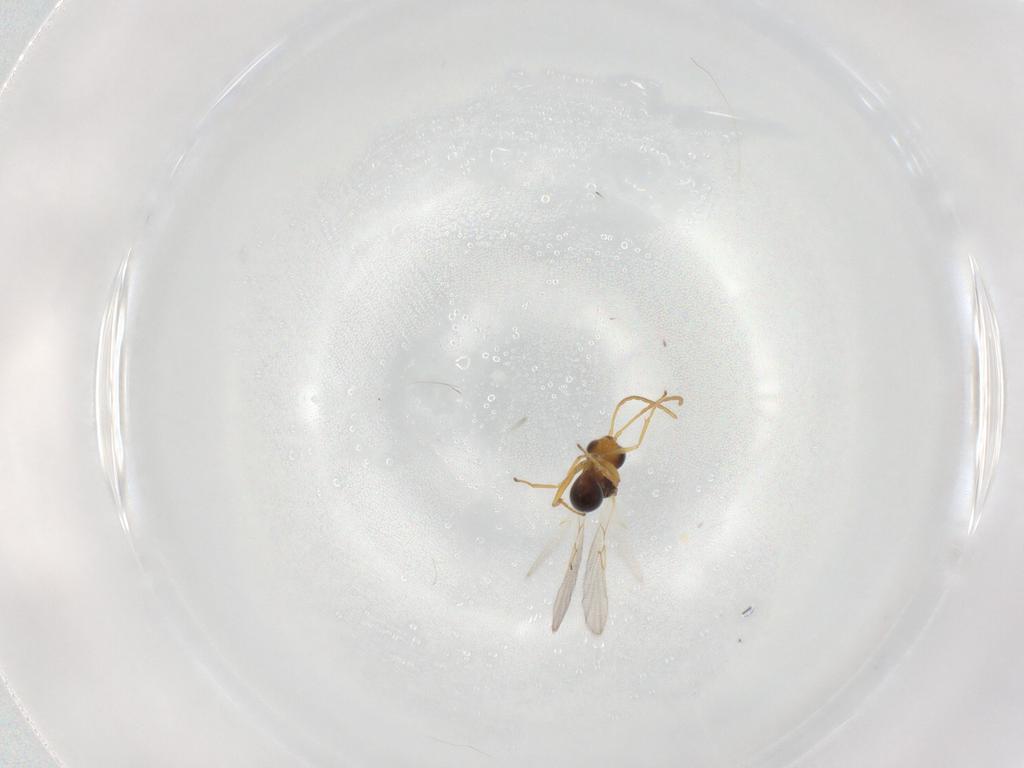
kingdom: Animalia
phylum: Arthropoda
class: Insecta
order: Hymenoptera
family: Figitidae
